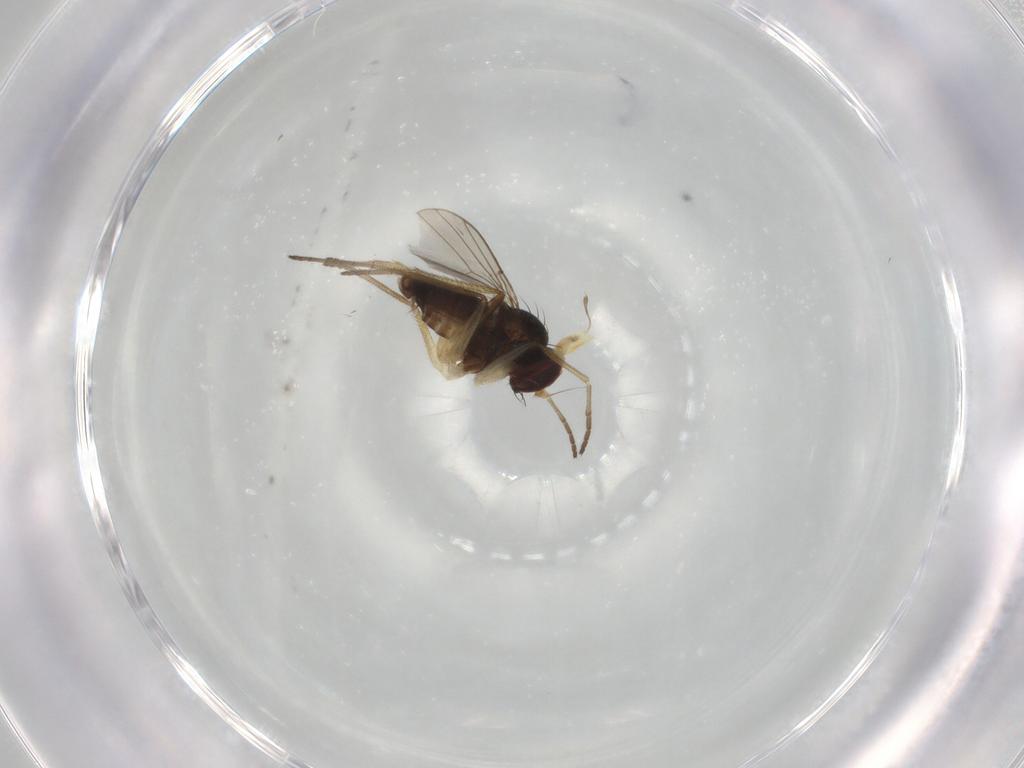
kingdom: Animalia
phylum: Arthropoda
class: Insecta
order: Diptera
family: Dolichopodidae
